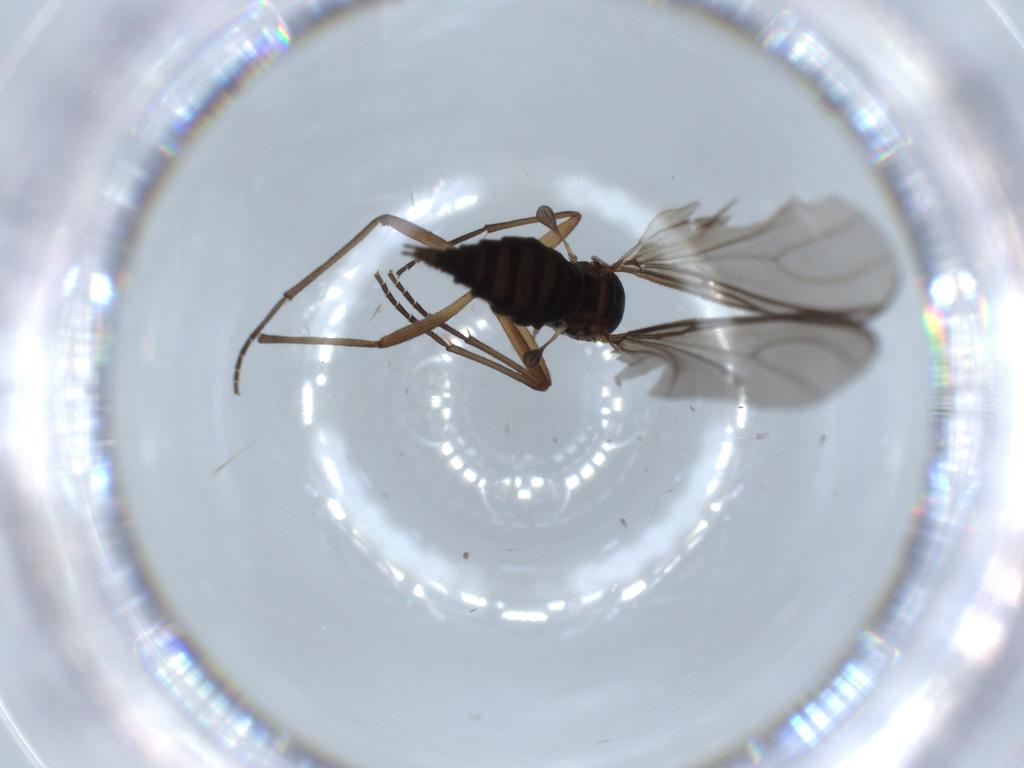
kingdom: Animalia
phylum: Arthropoda
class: Insecta
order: Diptera
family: Sciaridae
